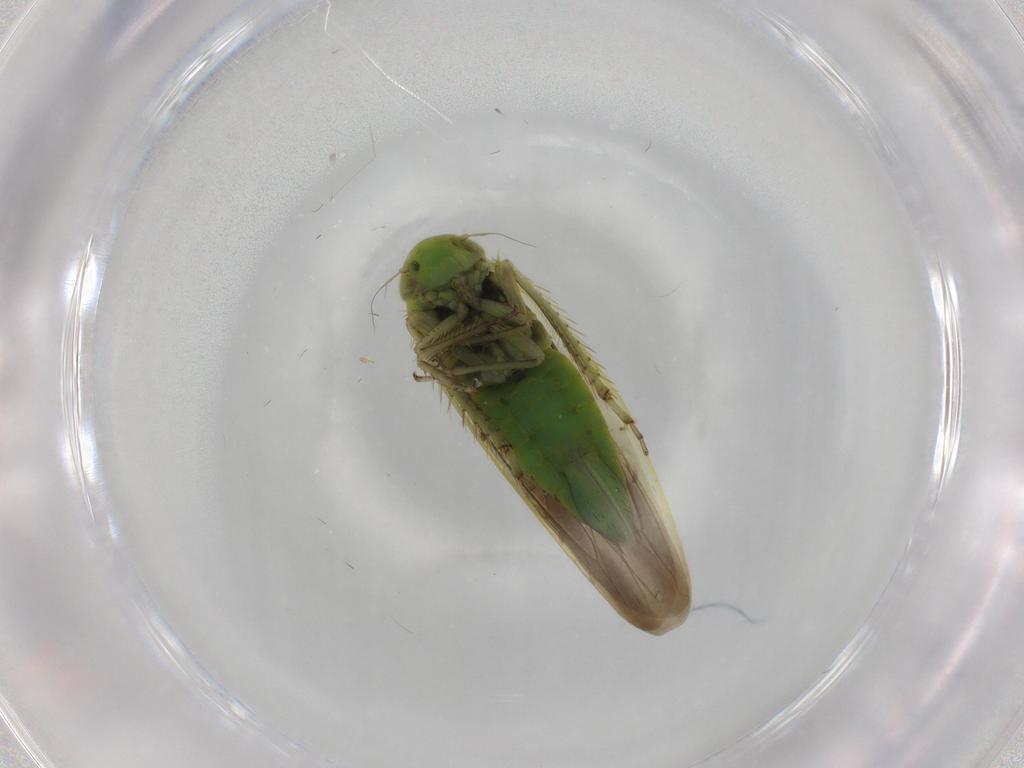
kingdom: Animalia
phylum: Arthropoda
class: Insecta
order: Hemiptera
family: Cicadellidae
